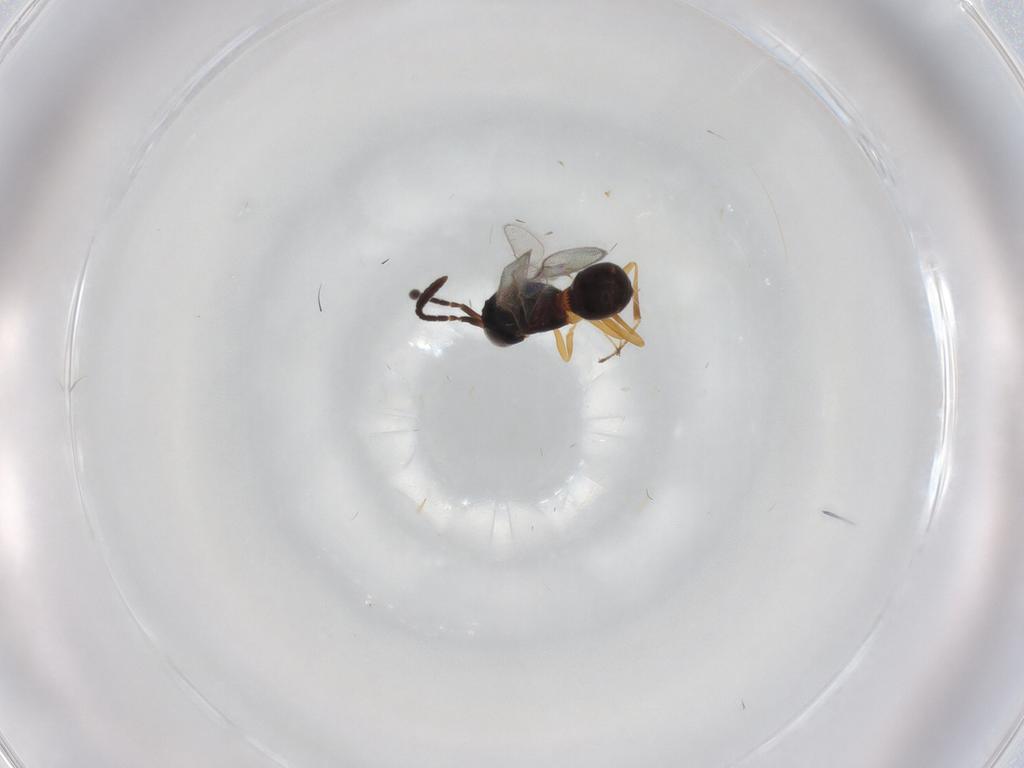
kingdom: Animalia
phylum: Arthropoda
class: Insecta
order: Hymenoptera
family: Scelionidae
